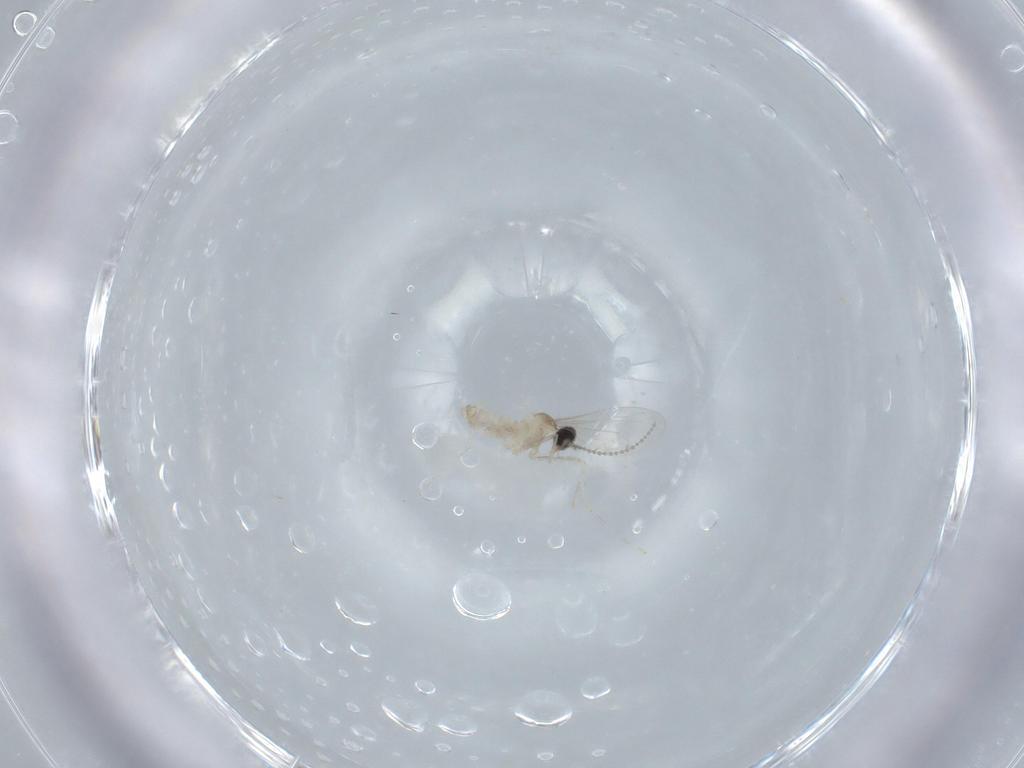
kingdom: Animalia
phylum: Arthropoda
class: Insecta
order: Diptera
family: Cecidomyiidae
